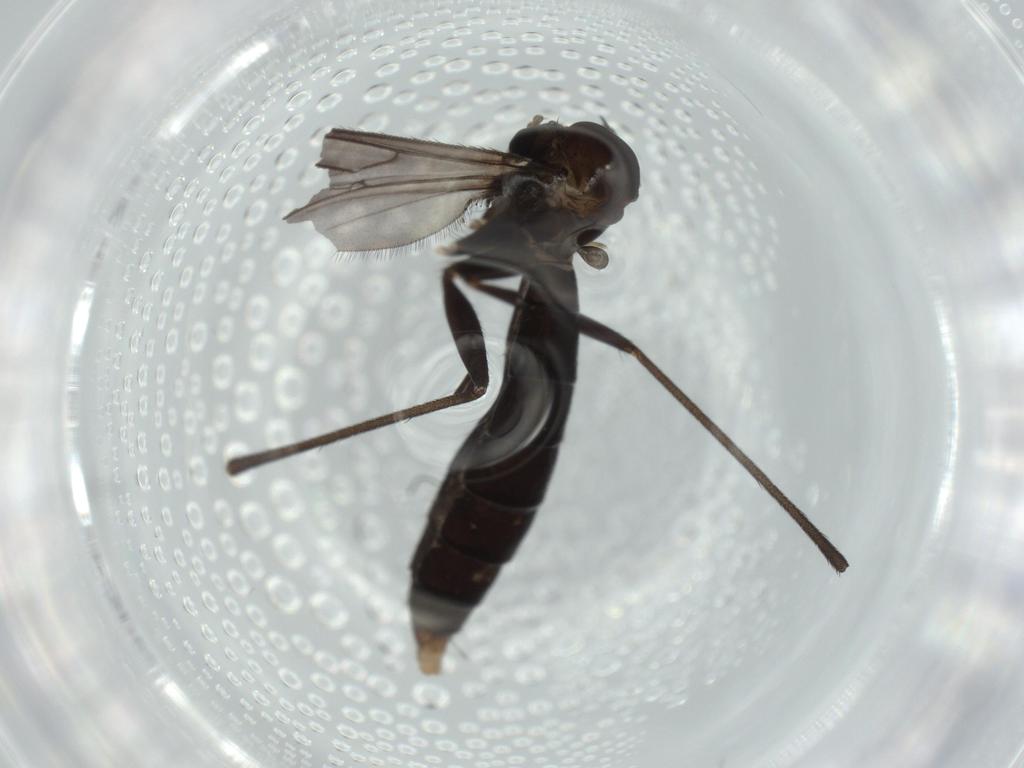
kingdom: Animalia
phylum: Arthropoda
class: Insecta
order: Diptera
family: Ditomyiidae
